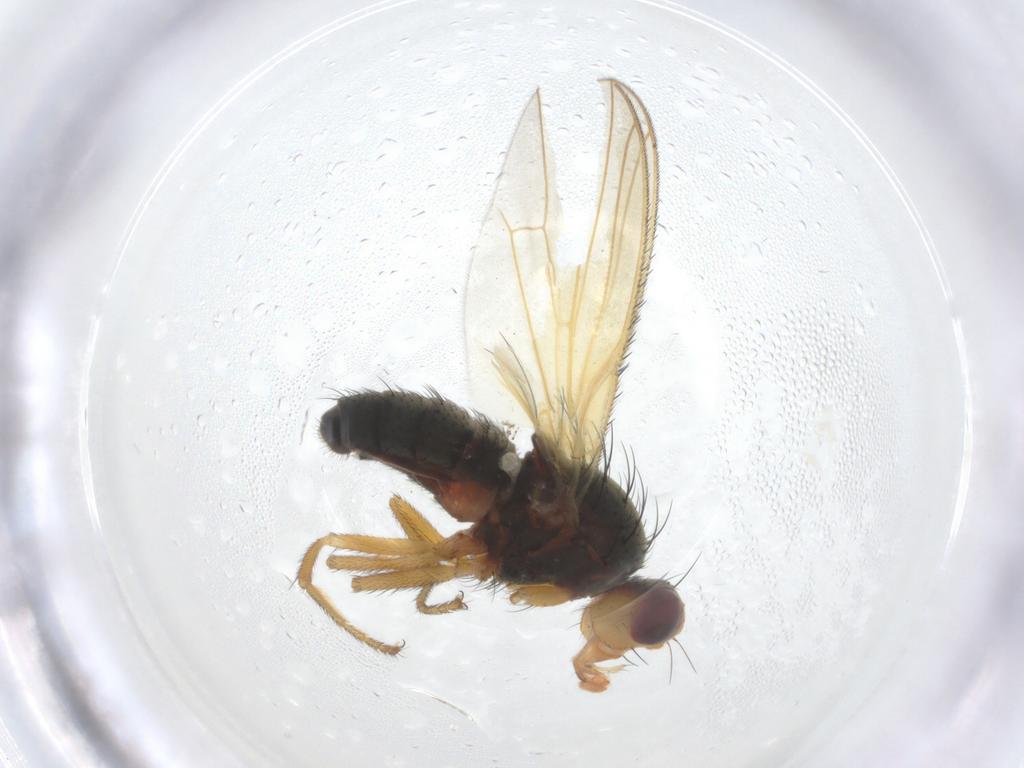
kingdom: Animalia
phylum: Arthropoda
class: Insecta
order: Diptera
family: Heleomyzidae
